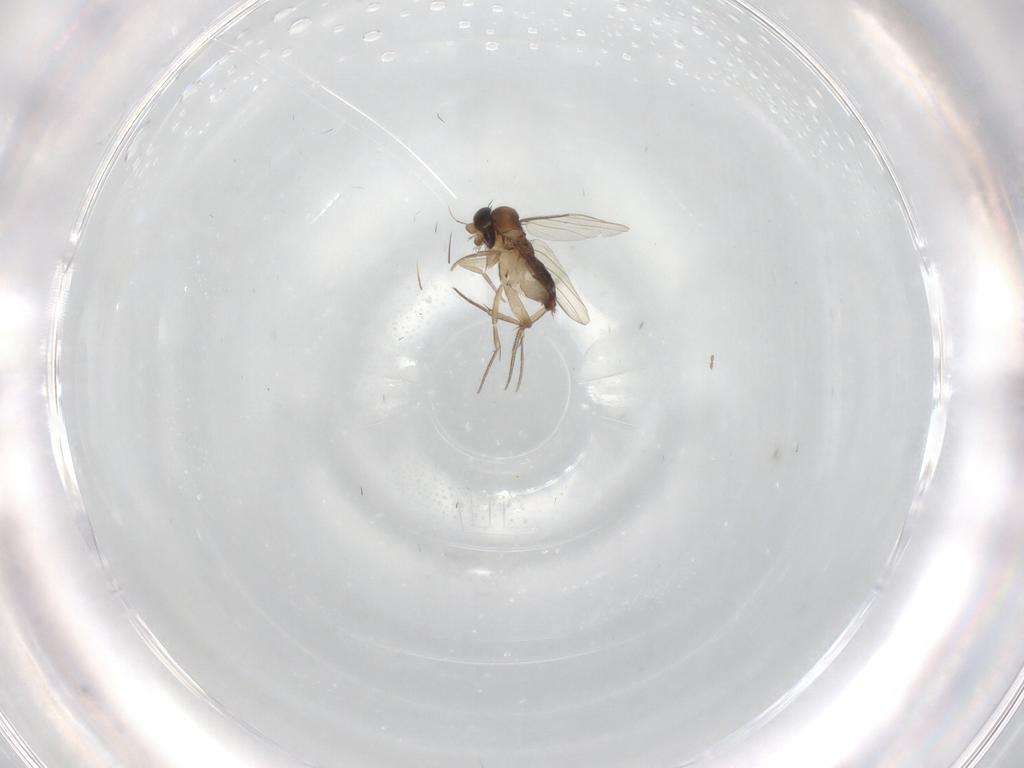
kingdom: Animalia
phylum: Arthropoda
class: Insecta
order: Diptera
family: Phoridae
